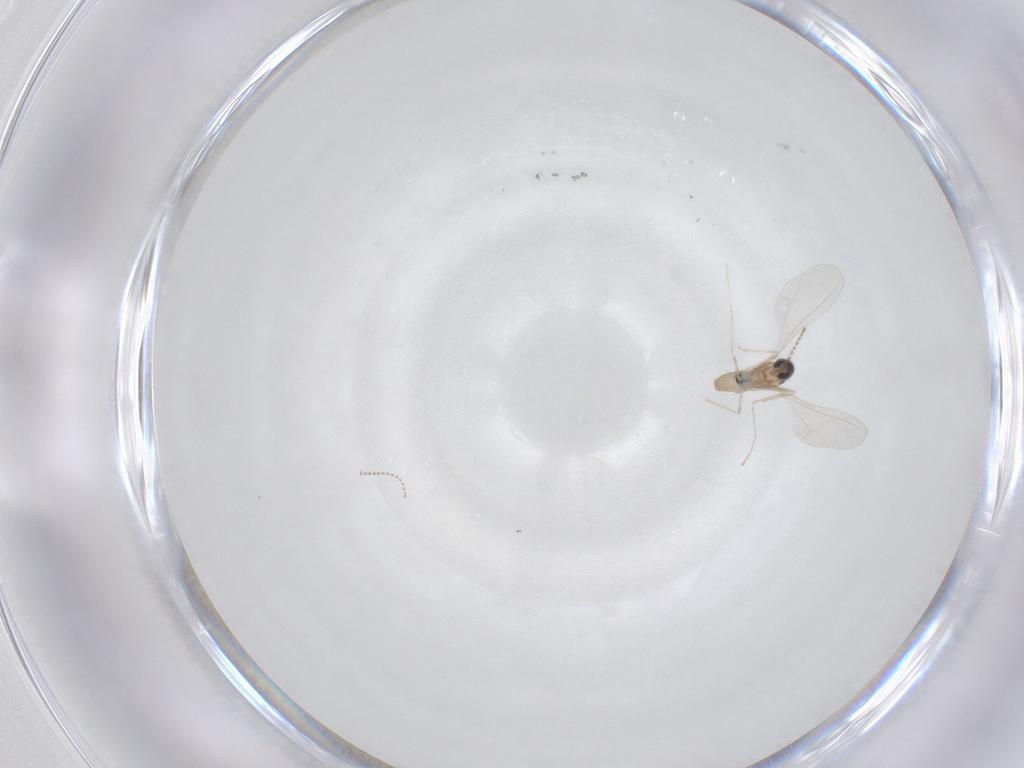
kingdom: Animalia
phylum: Arthropoda
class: Insecta
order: Diptera
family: Cecidomyiidae
